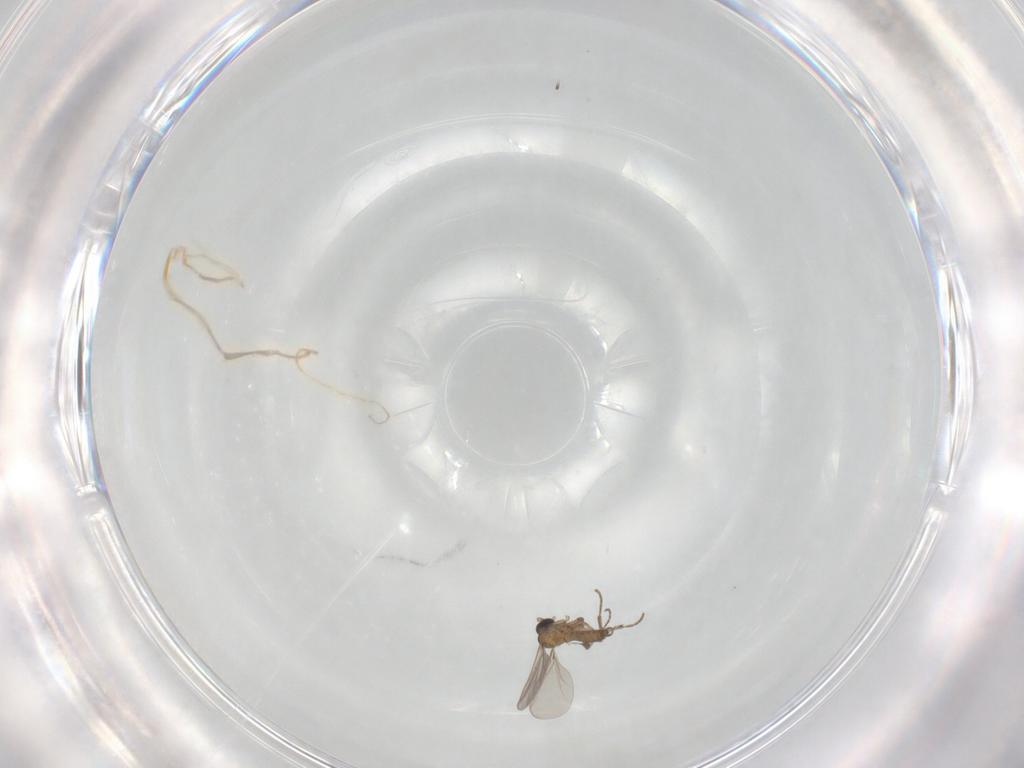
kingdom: Animalia
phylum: Arthropoda
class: Insecta
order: Diptera
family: Sciaridae
